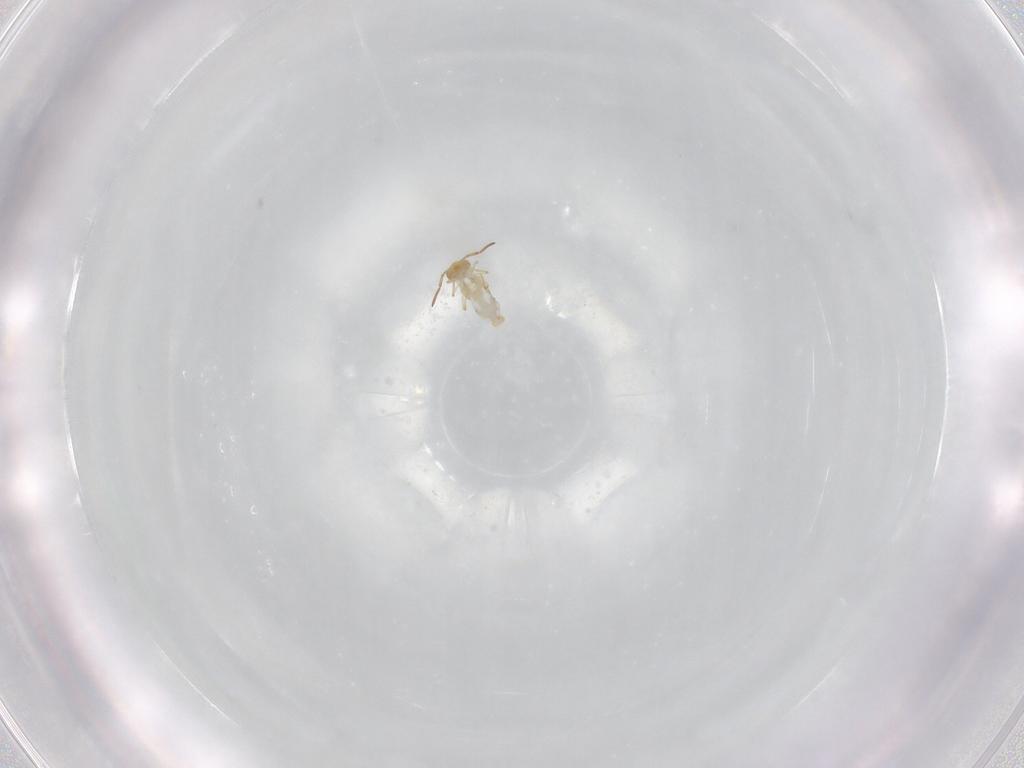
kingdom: Animalia
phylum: Arthropoda
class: Collembola
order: Symphypleona
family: Bourletiellidae
